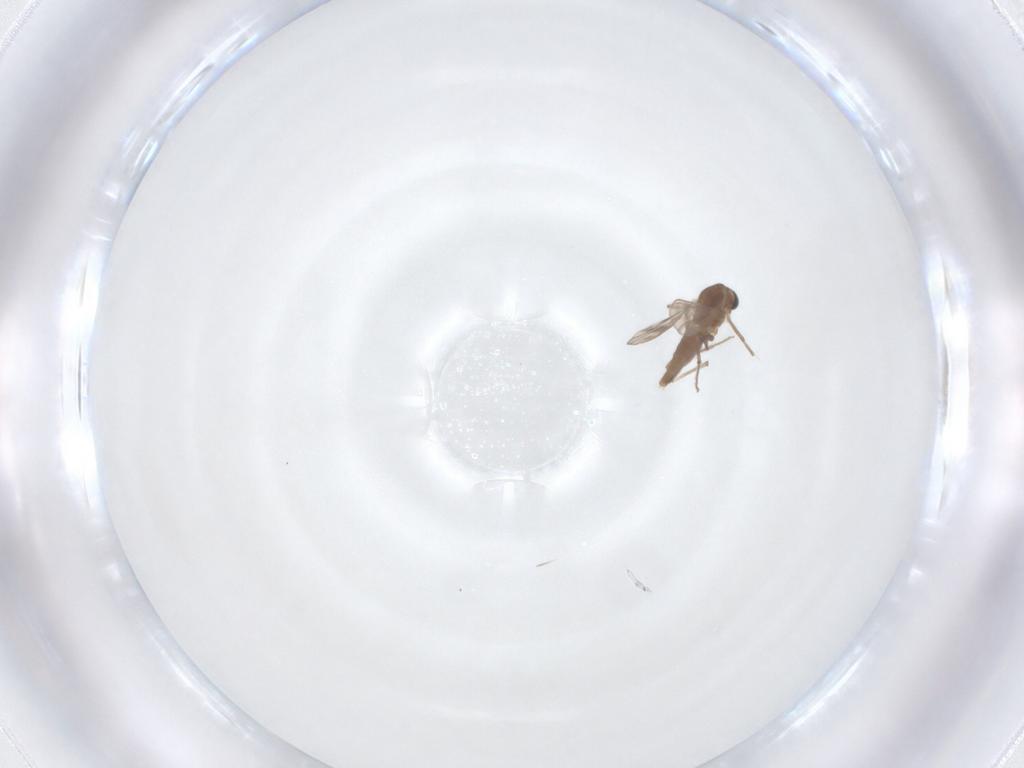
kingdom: Animalia
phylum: Arthropoda
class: Insecta
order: Diptera
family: Chironomidae
